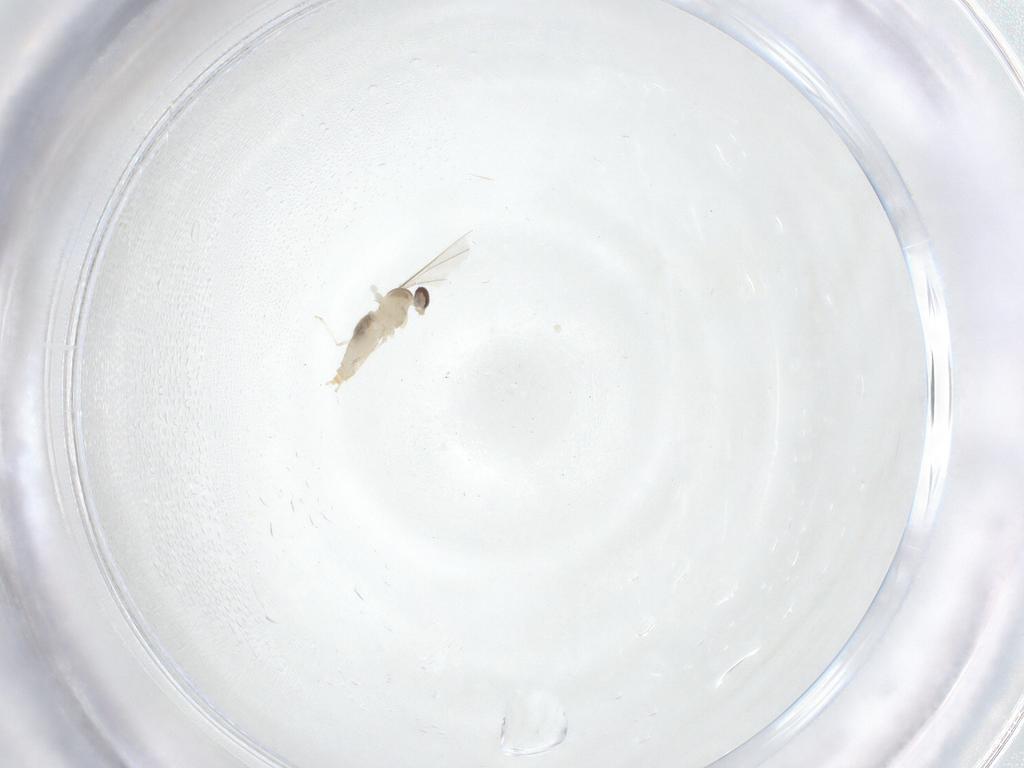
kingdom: Animalia
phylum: Arthropoda
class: Insecta
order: Diptera
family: Cecidomyiidae
